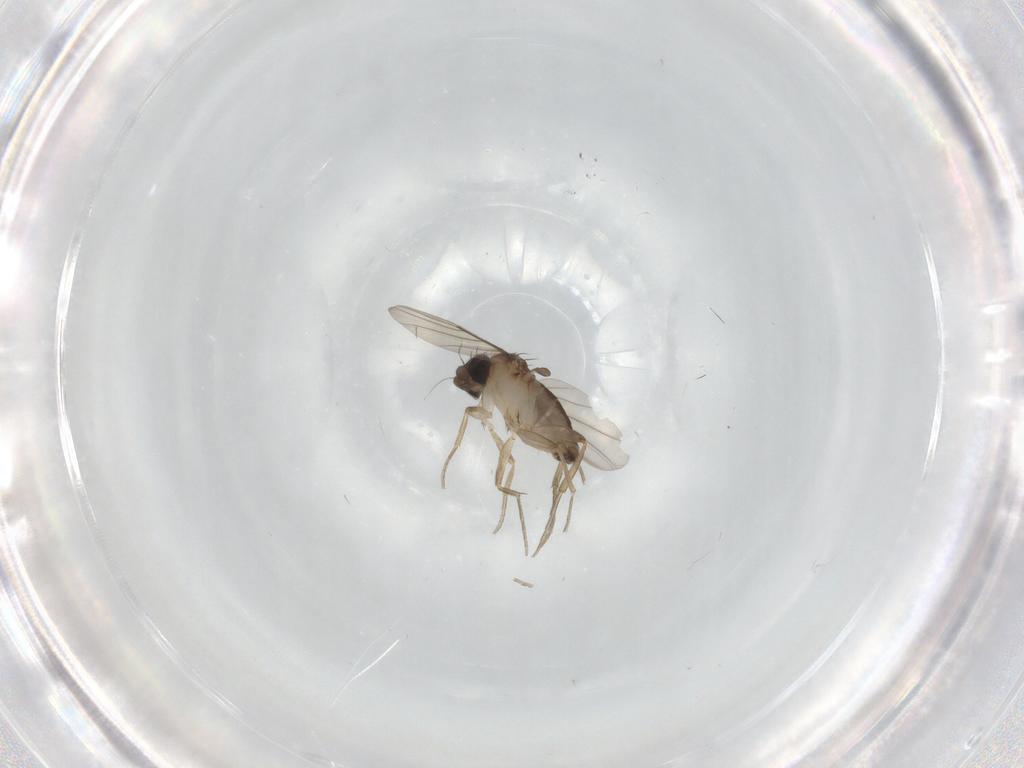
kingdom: Animalia
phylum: Arthropoda
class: Insecta
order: Diptera
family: Phoridae
